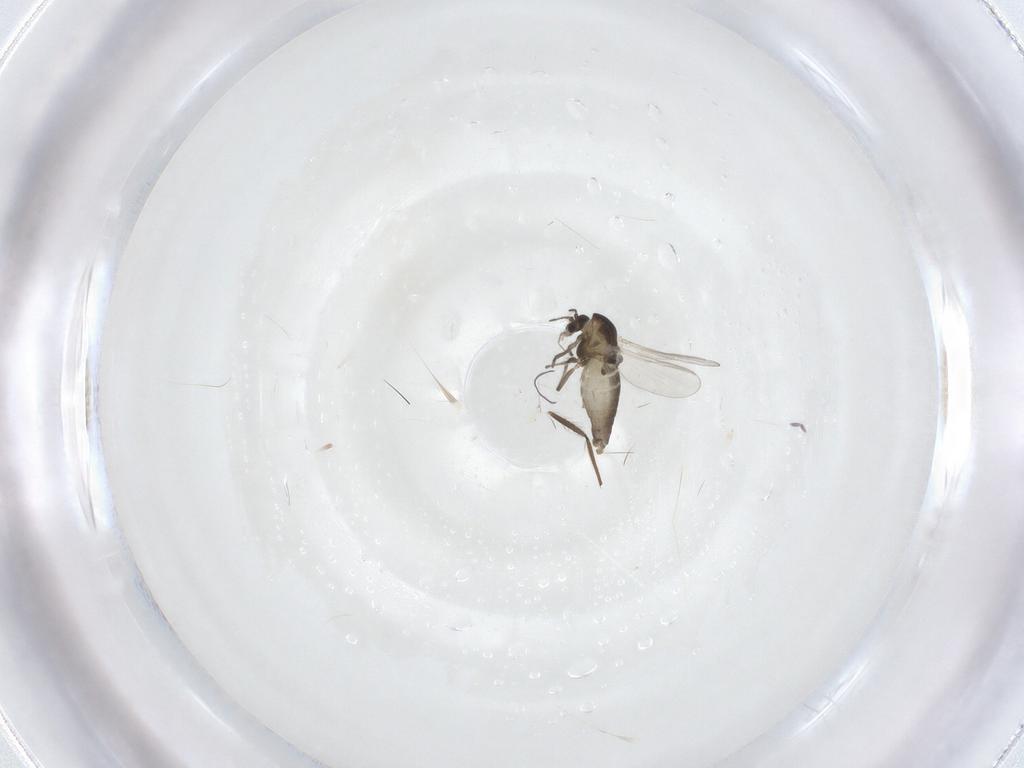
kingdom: Animalia
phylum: Arthropoda
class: Insecta
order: Diptera
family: Chironomidae
